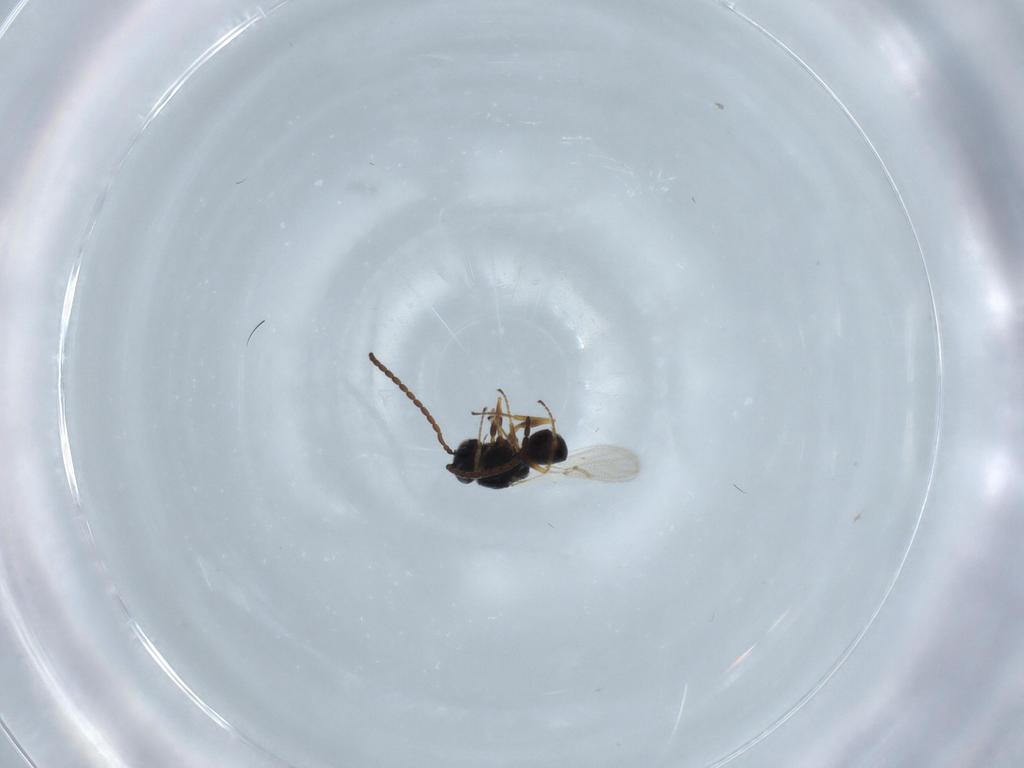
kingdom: Animalia
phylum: Arthropoda
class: Insecta
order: Hymenoptera
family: Figitidae
